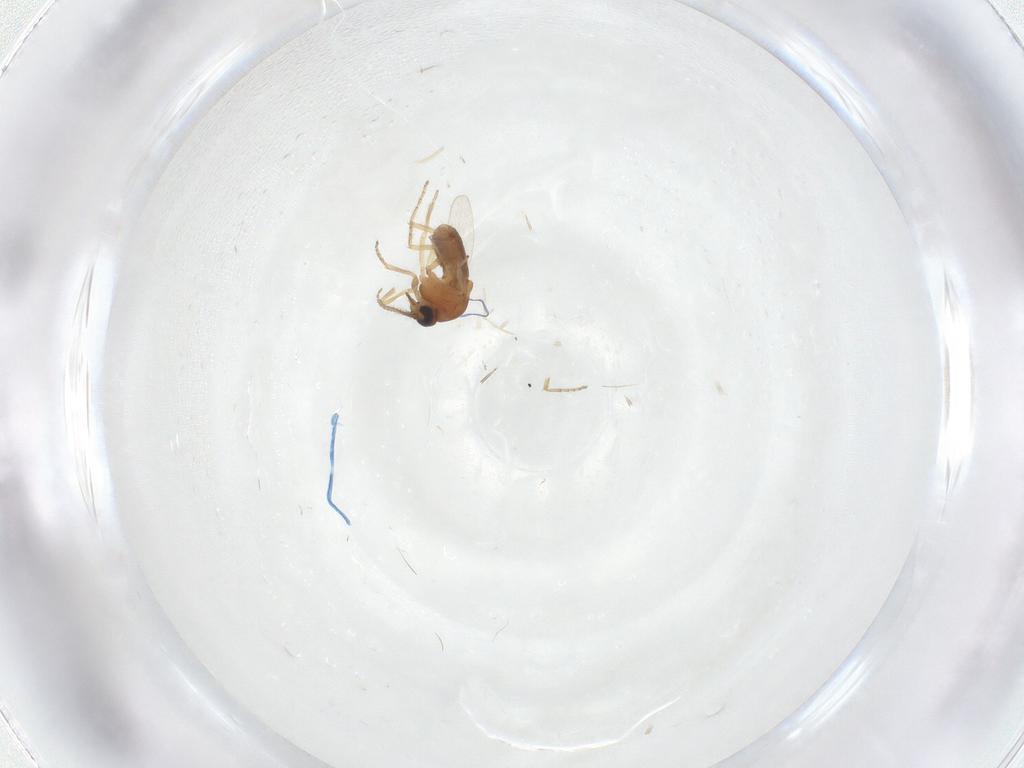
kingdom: Animalia
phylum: Arthropoda
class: Insecta
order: Diptera
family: Ceratopogonidae
